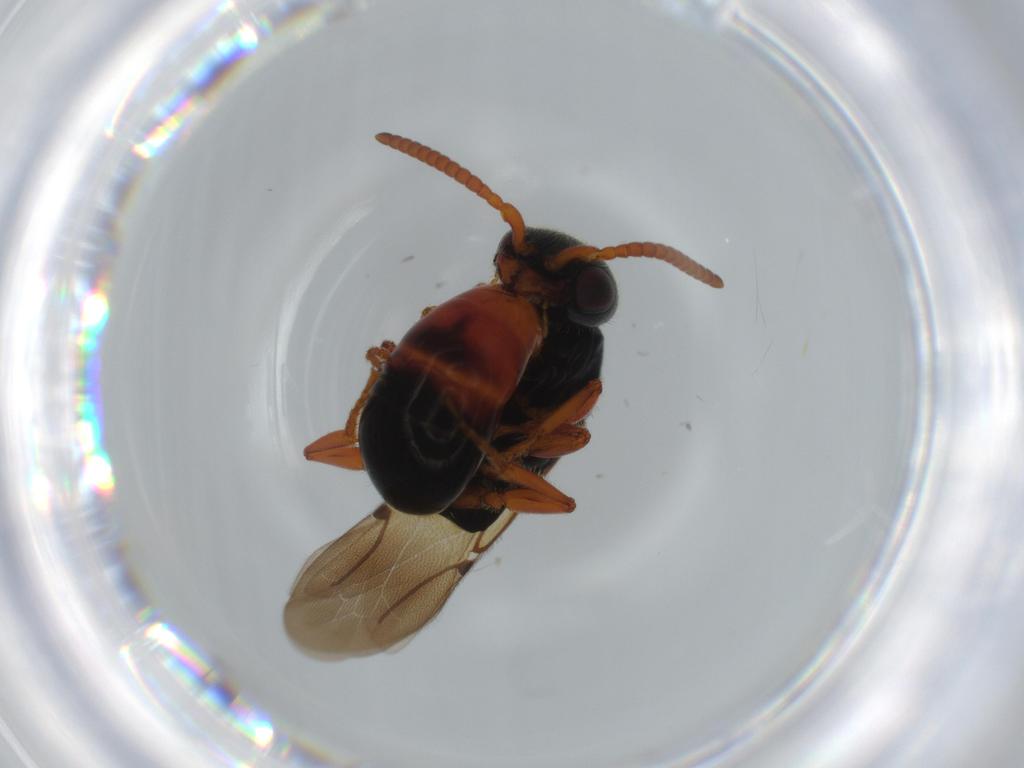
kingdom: Animalia
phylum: Arthropoda
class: Insecta
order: Hymenoptera
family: Bethylidae
